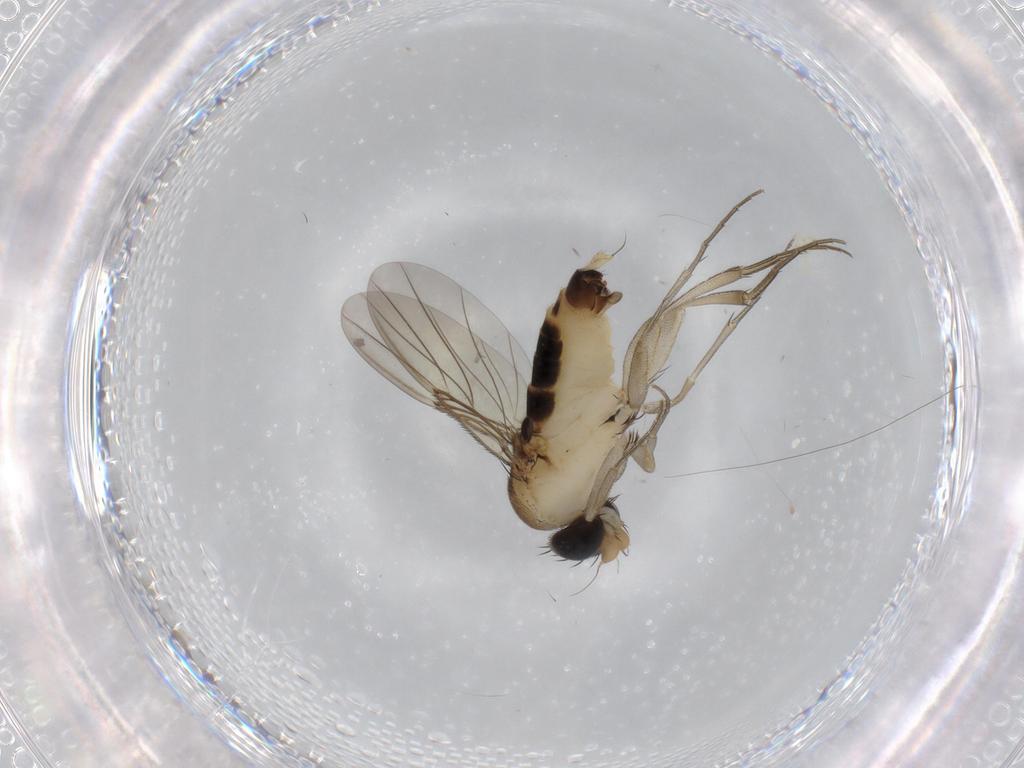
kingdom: Animalia
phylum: Arthropoda
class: Insecta
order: Diptera
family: Phoridae
